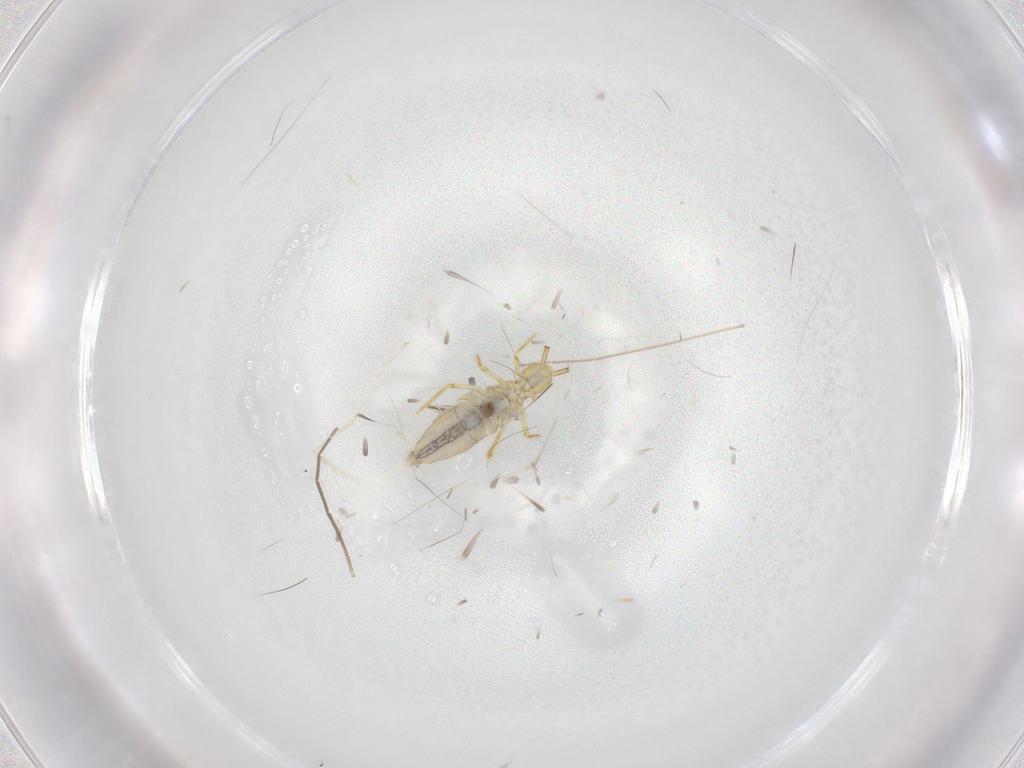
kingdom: Animalia
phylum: Arthropoda
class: Collembola
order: Entomobryomorpha
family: Paronellidae
